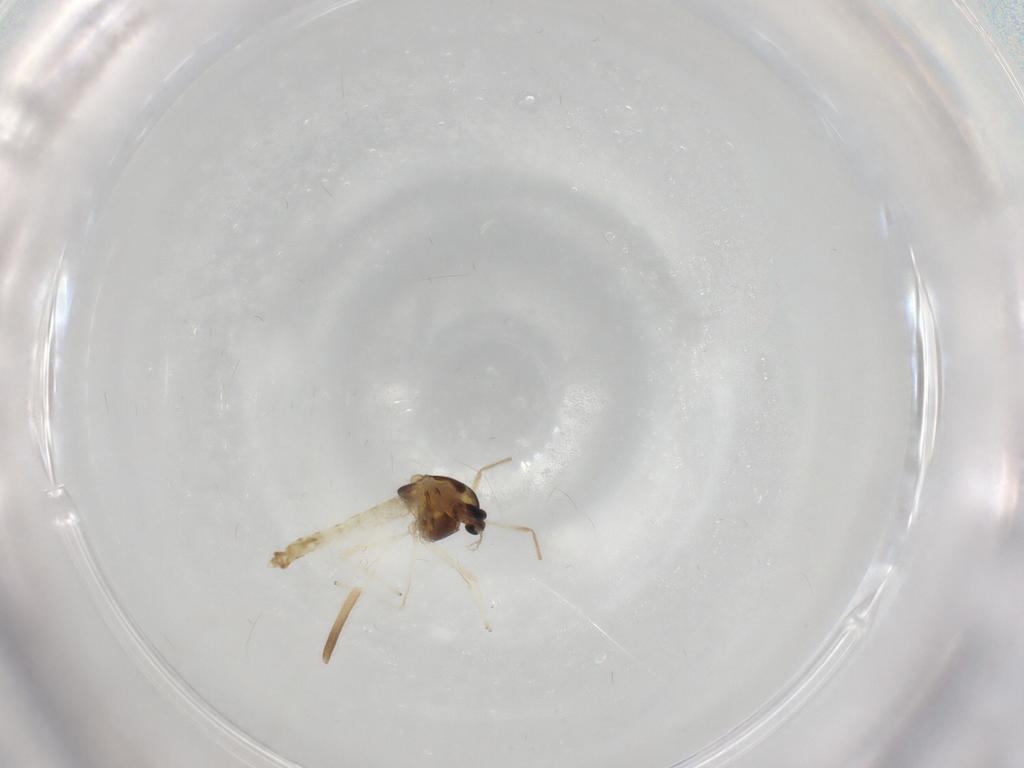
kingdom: Animalia
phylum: Arthropoda
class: Insecta
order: Diptera
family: Chironomidae
